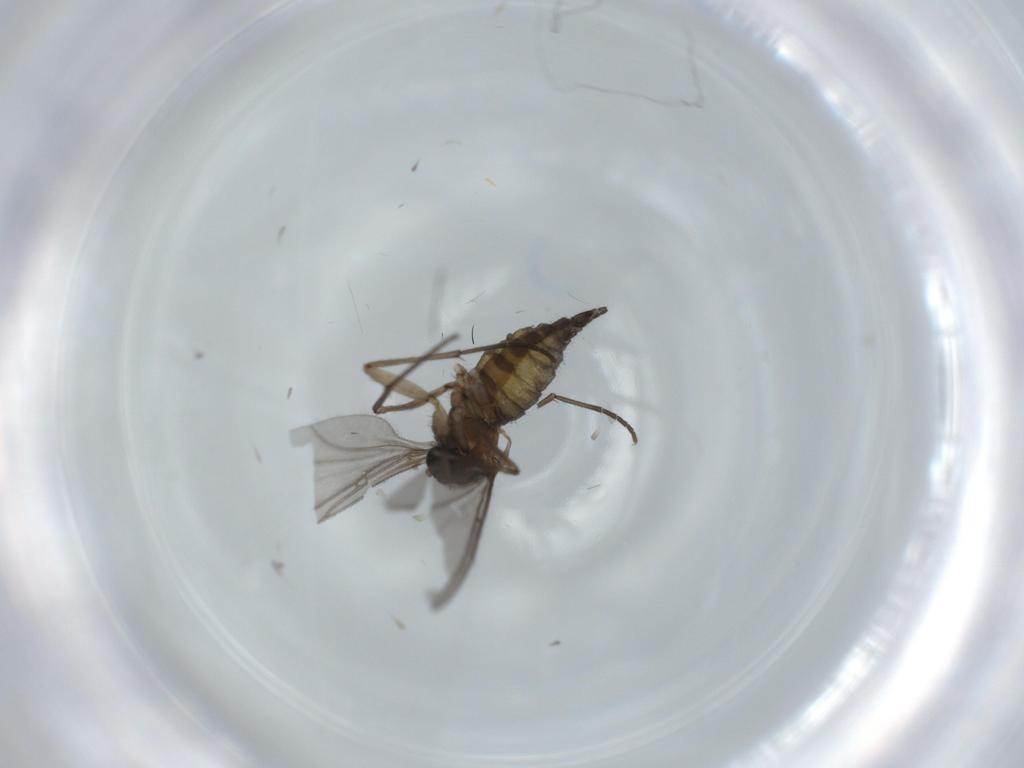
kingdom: Animalia
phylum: Arthropoda
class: Insecta
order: Diptera
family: Sciaridae
